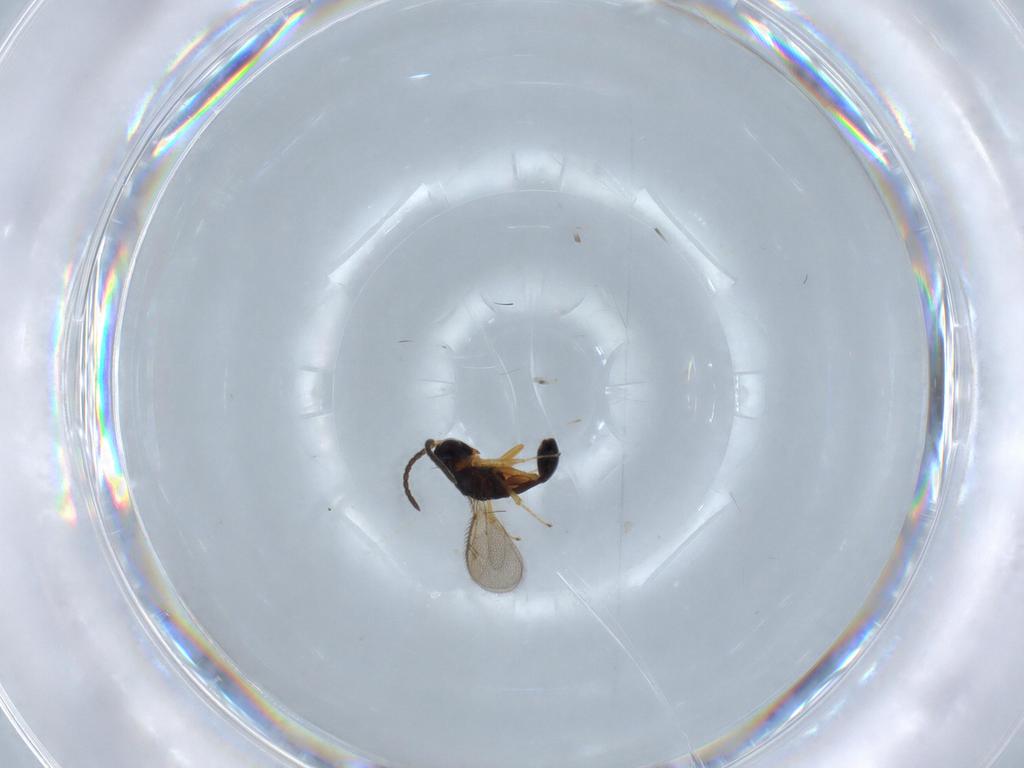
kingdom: Animalia
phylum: Arthropoda
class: Insecta
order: Hymenoptera
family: Diparidae
